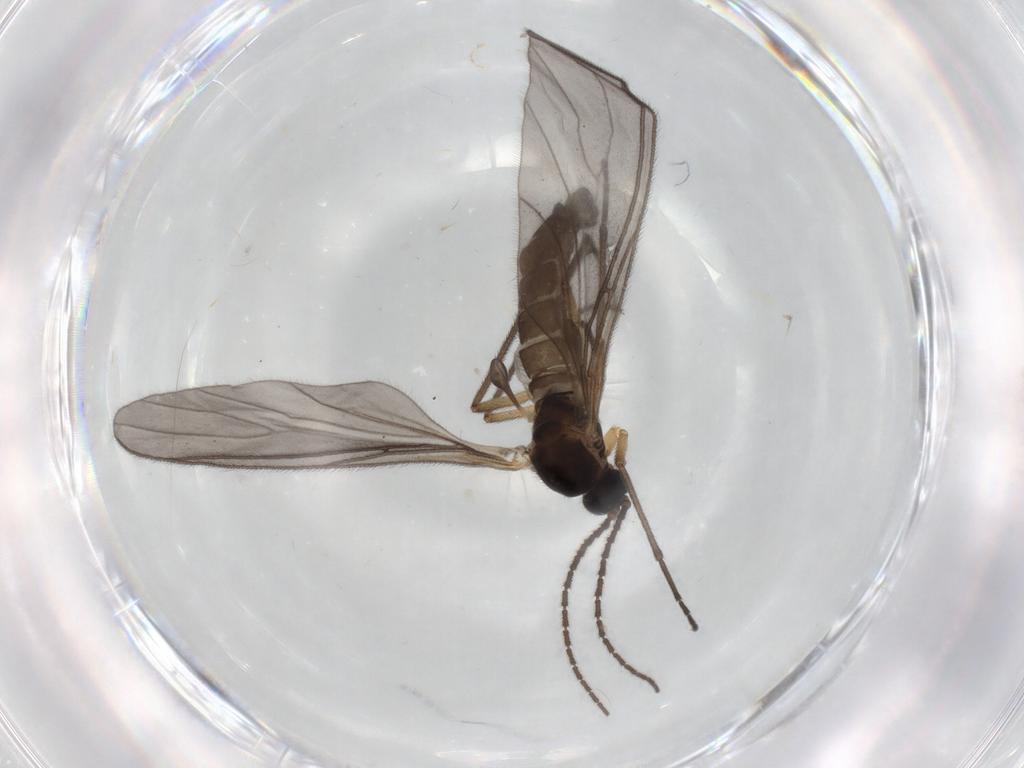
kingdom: Animalia
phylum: Arthropoda
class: Insecta
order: Diptera
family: Sciaridae
